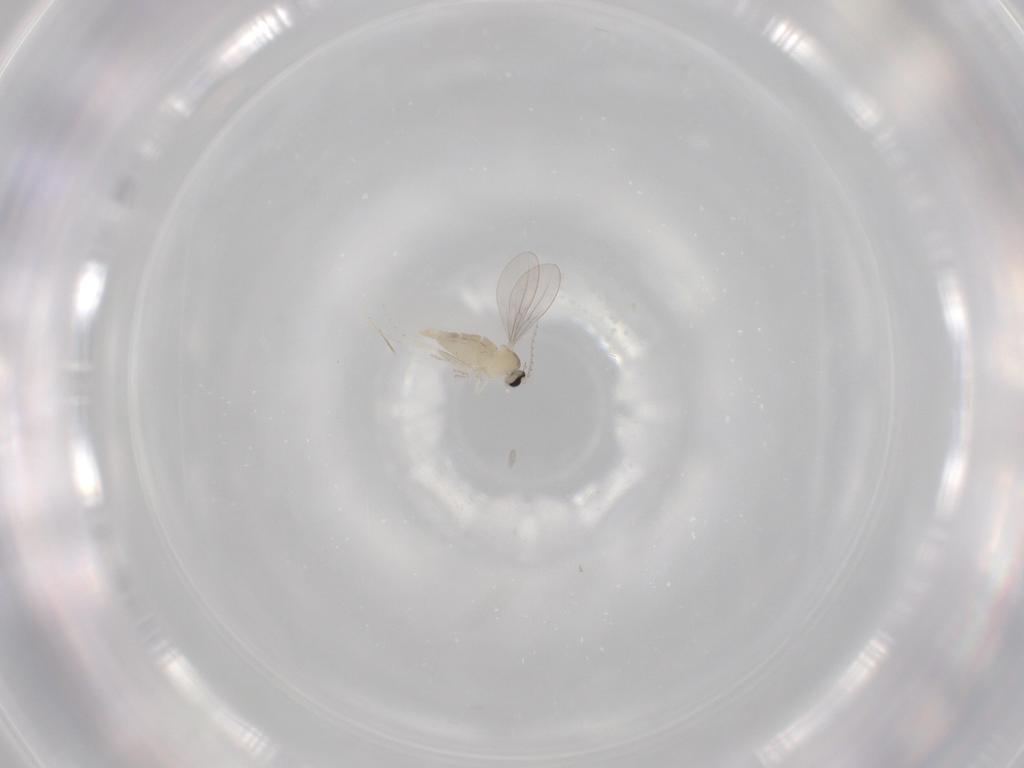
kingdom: Animalia
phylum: Arthropoda
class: Insecta
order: Diptera
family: Cecidomyiidae
